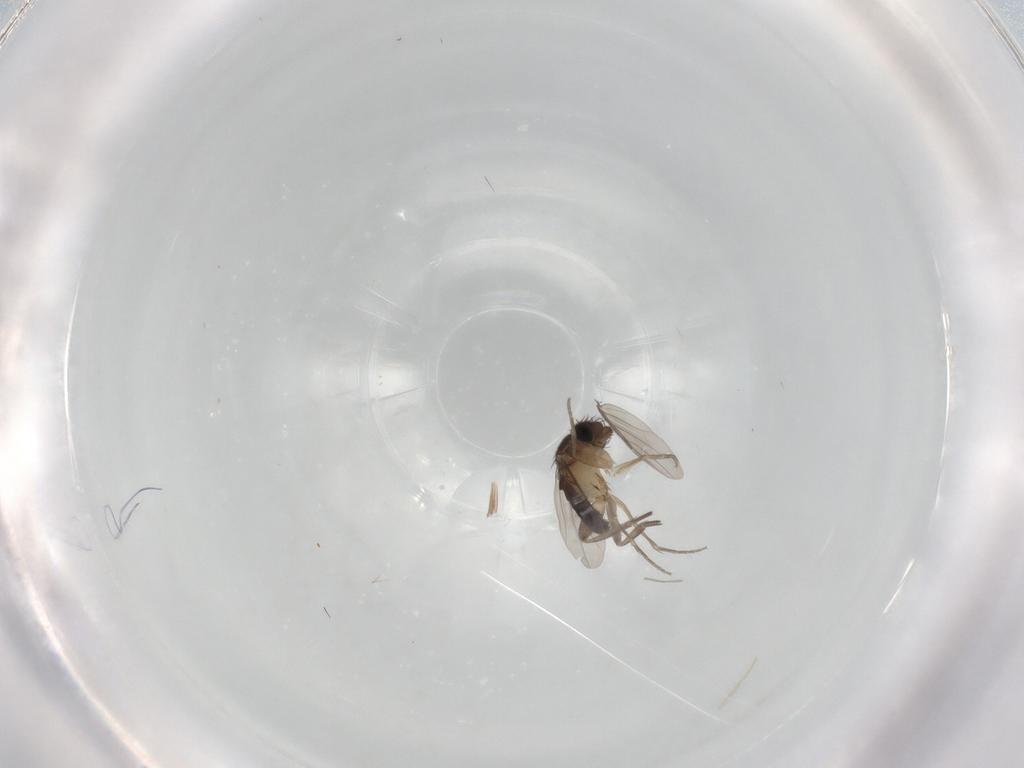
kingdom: Animalia
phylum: Arthropoda
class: Insecta
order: Diptera
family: Phoridae
